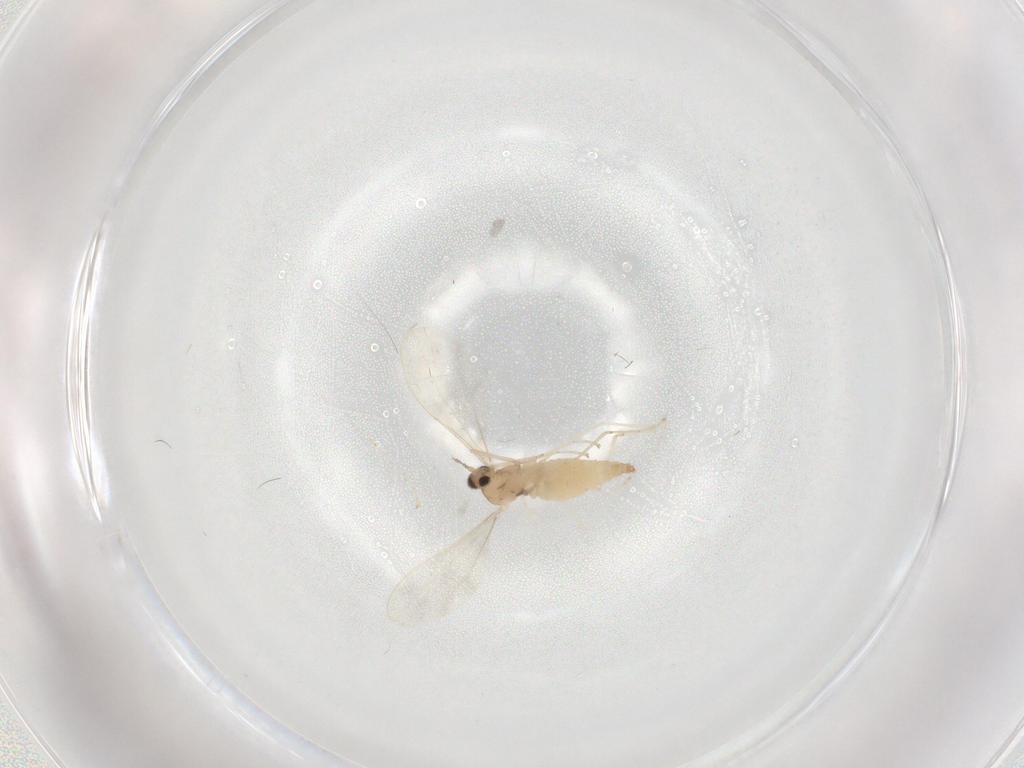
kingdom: Animalia
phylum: Arthropoda
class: Insecta
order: Diptera
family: Cecidomyiidae
